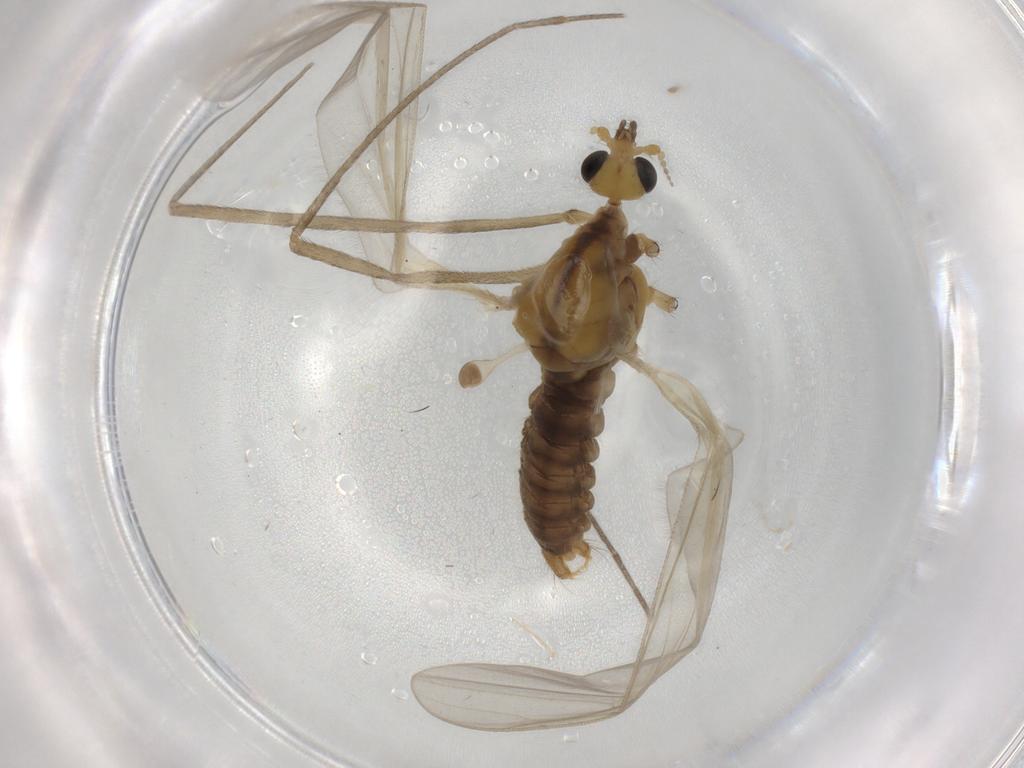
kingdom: Animalia
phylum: Arthropoda
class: Insecta
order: Diptera
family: Limoniidae
